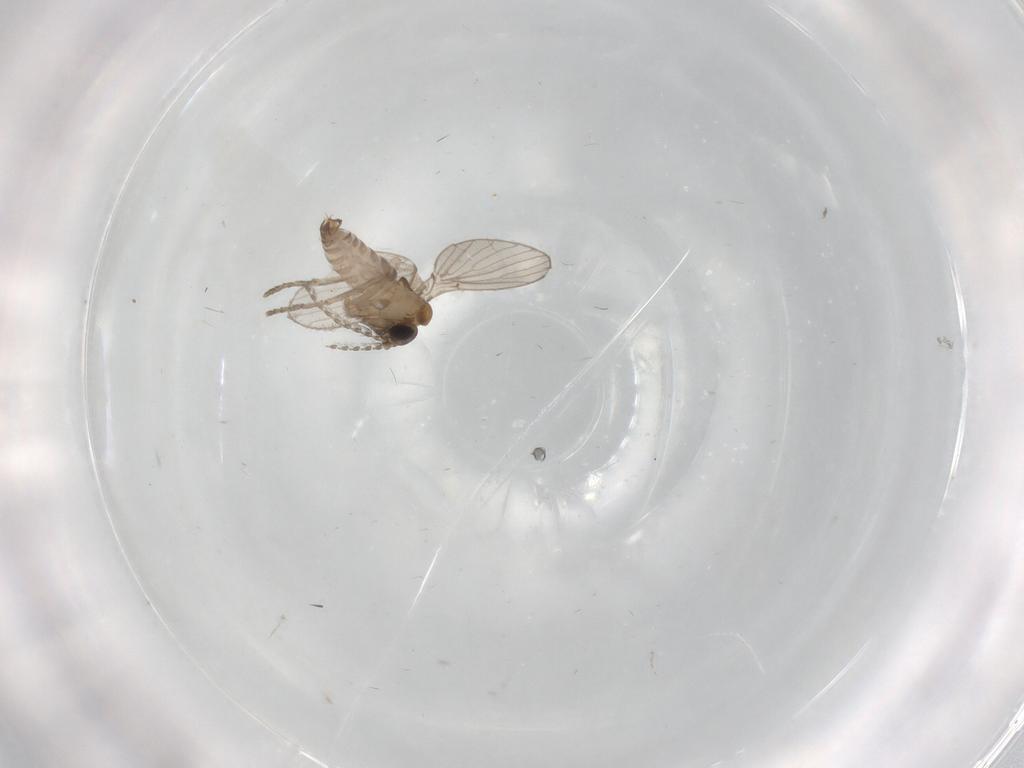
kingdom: Animalia
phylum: Arthropoda
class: Insecta
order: Diptera
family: Psychodidae
